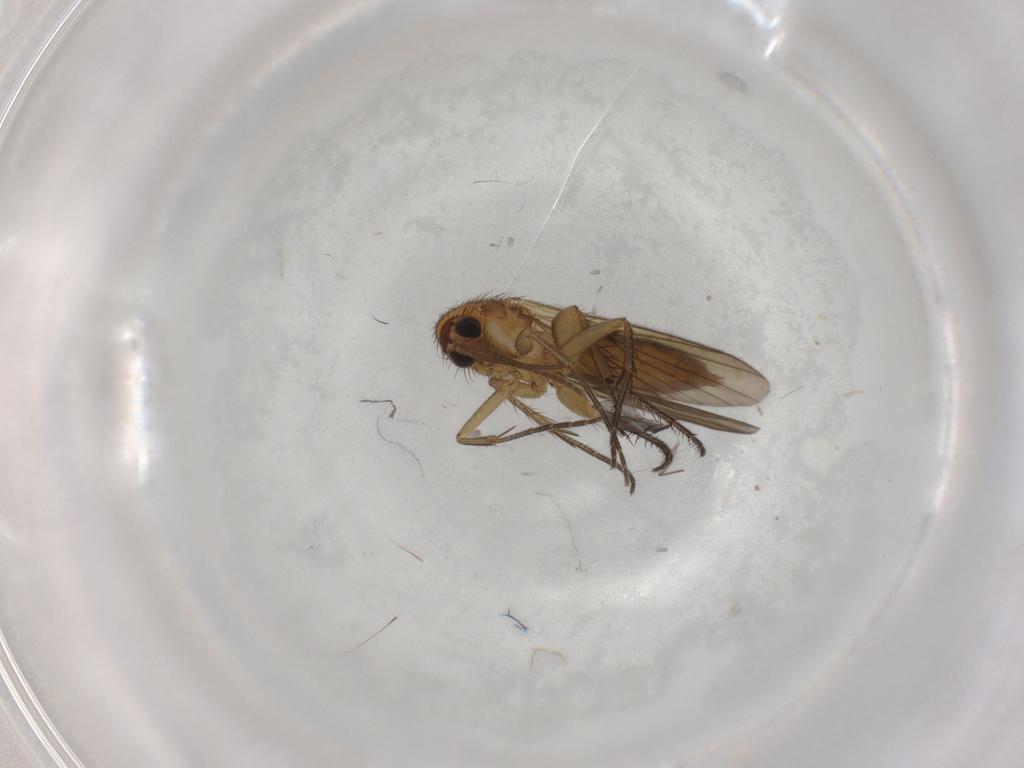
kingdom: Animalia
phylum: Arthropoda
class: Insecta
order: Diptera
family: Mycetophilidae
